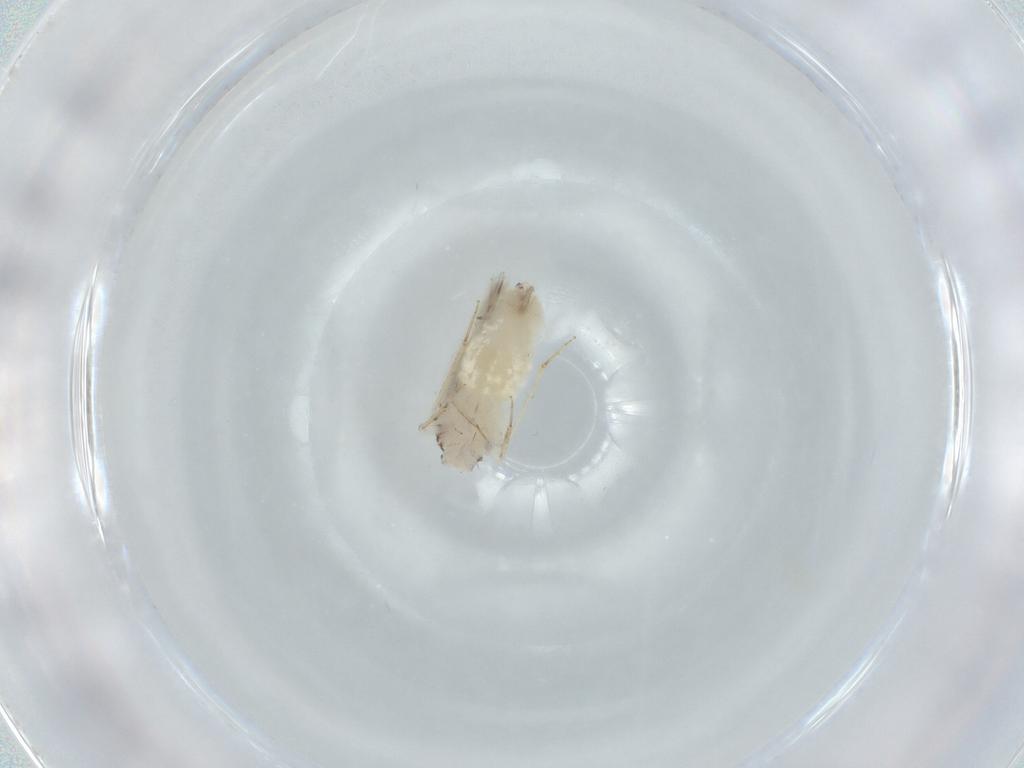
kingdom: Animalia
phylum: Arthropoda
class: Insecta
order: Psocodea
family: Lepidopsocidae
